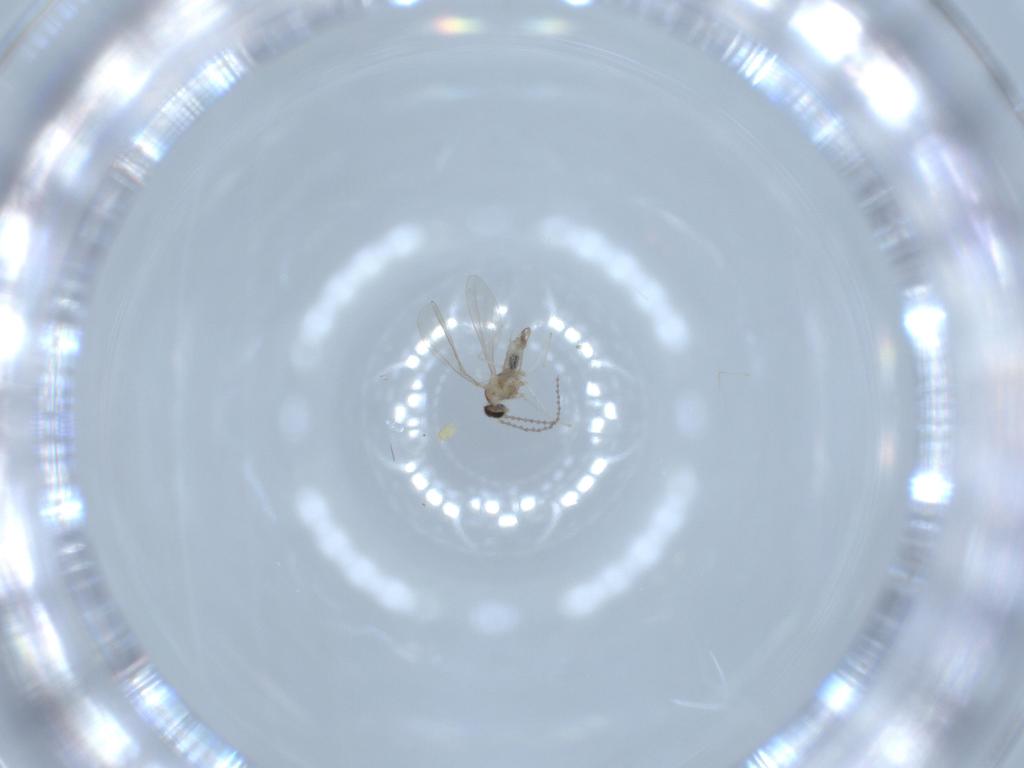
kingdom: Animalia
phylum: Arthropoda
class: Insecta
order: Diptera
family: Cecidomyiidae
